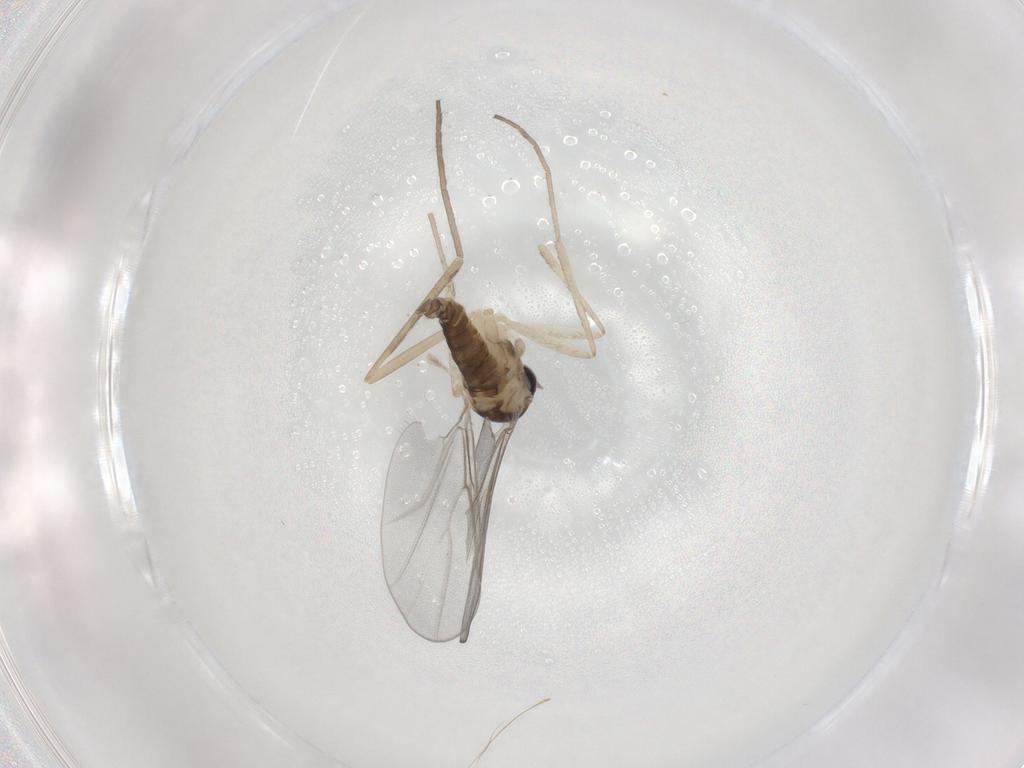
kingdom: Animalia
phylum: Arthropoda
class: Insecta
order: Diptera
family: Cecidomyiidae
